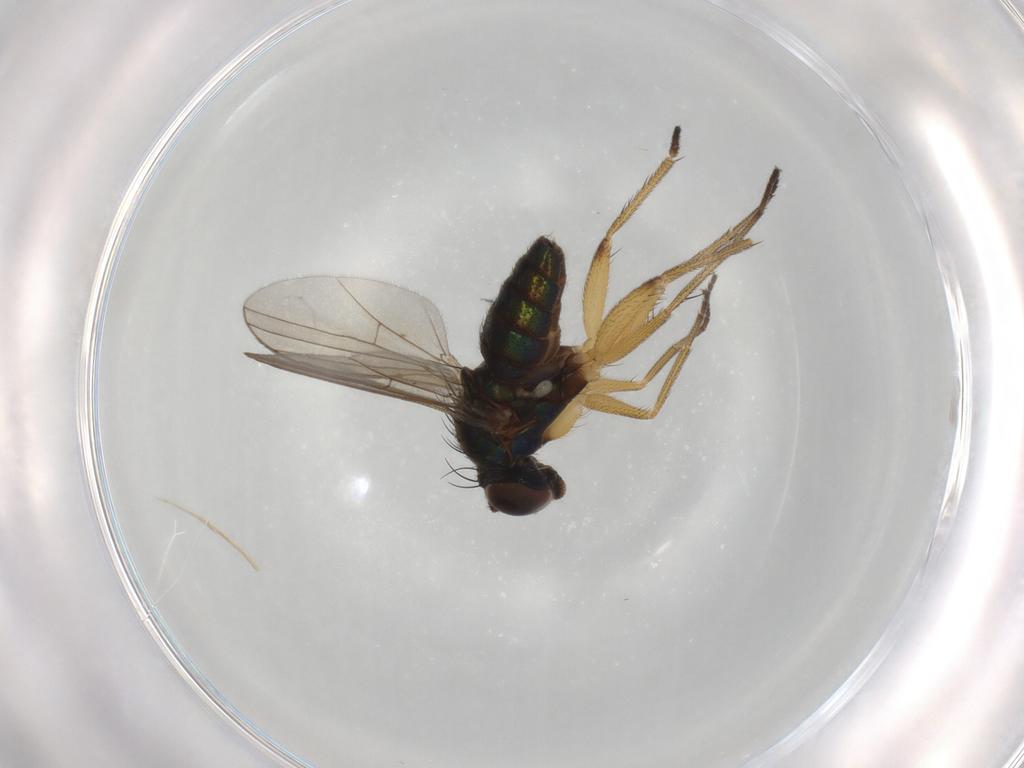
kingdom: Animalia
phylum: Arthropoda
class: Insecta
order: Diptera
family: Dolichopodidae
